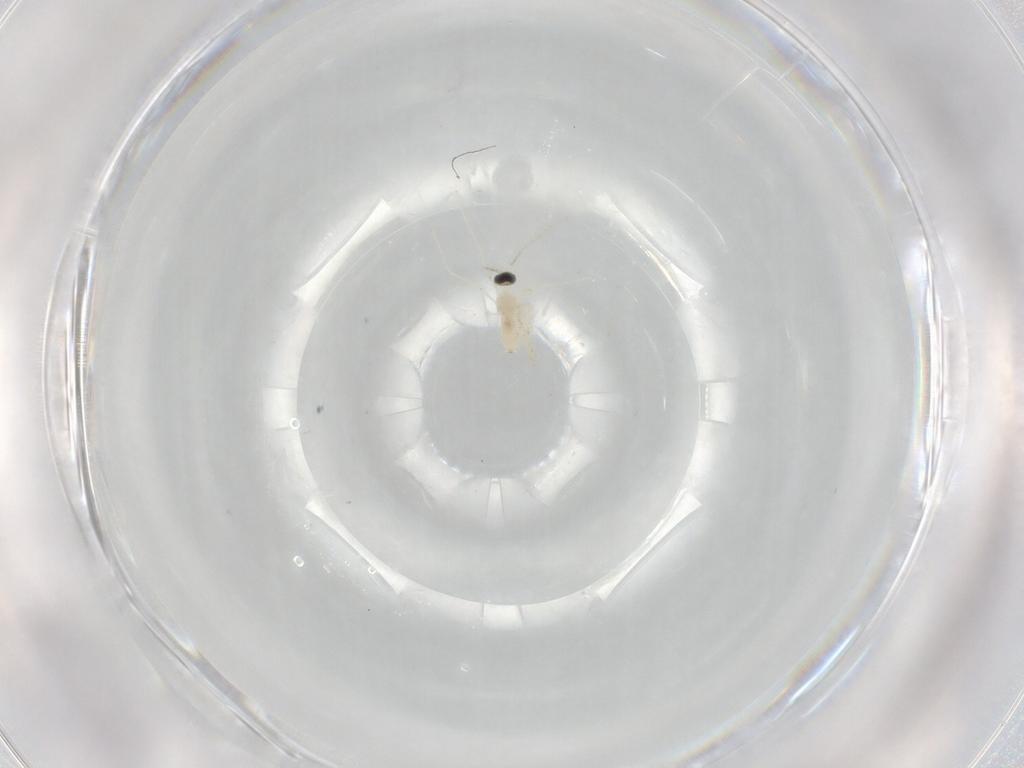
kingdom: Animalia
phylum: Arthropoda
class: Insecta
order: Diptera
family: Cecidomyiidae
